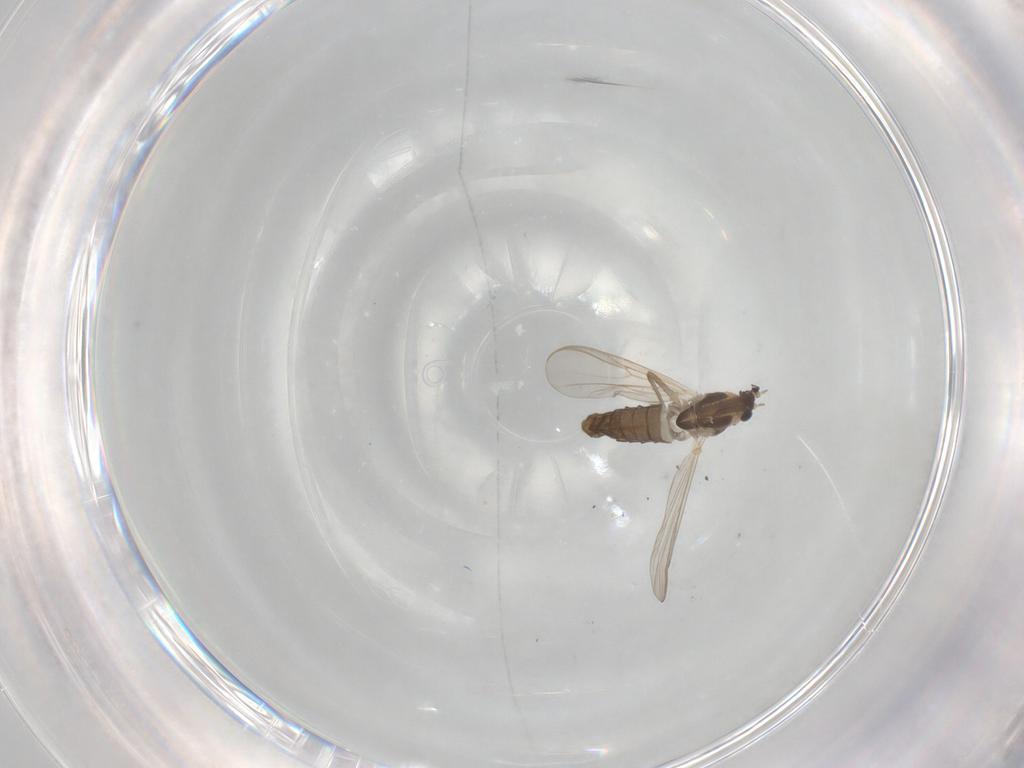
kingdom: Animalia
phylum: Arthropoda
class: Insecta
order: Diptera
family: Chironomidae
